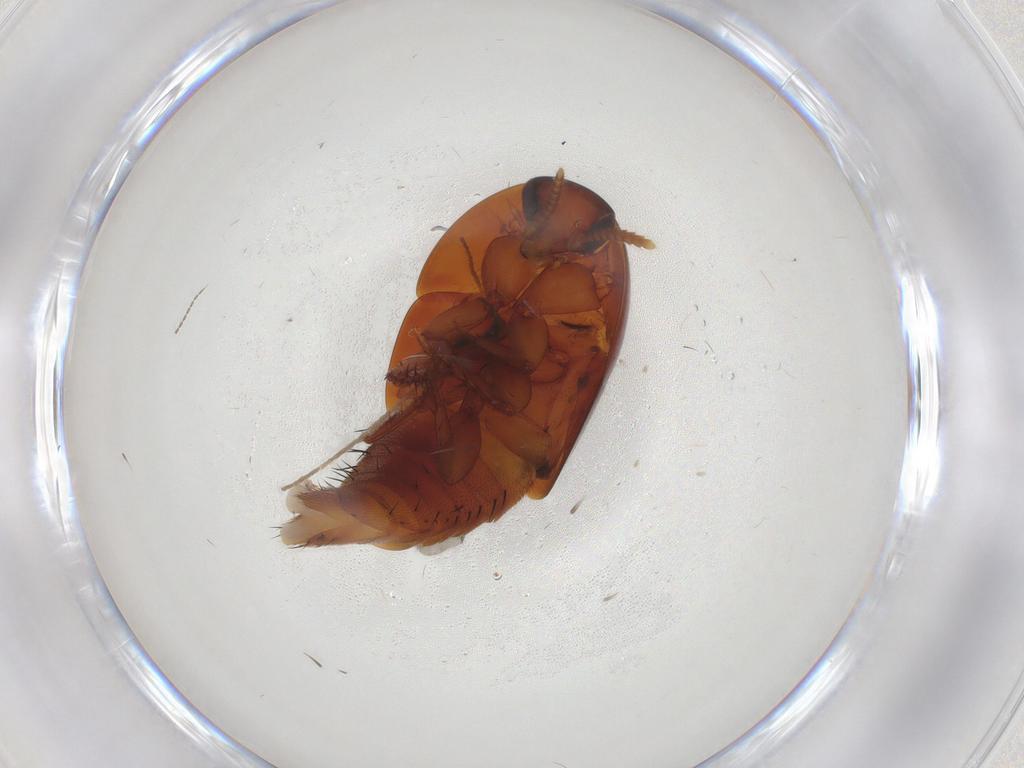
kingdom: Animalia
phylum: Arthropoda
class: Insecta
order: Coleoptera
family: Staphylinidae
